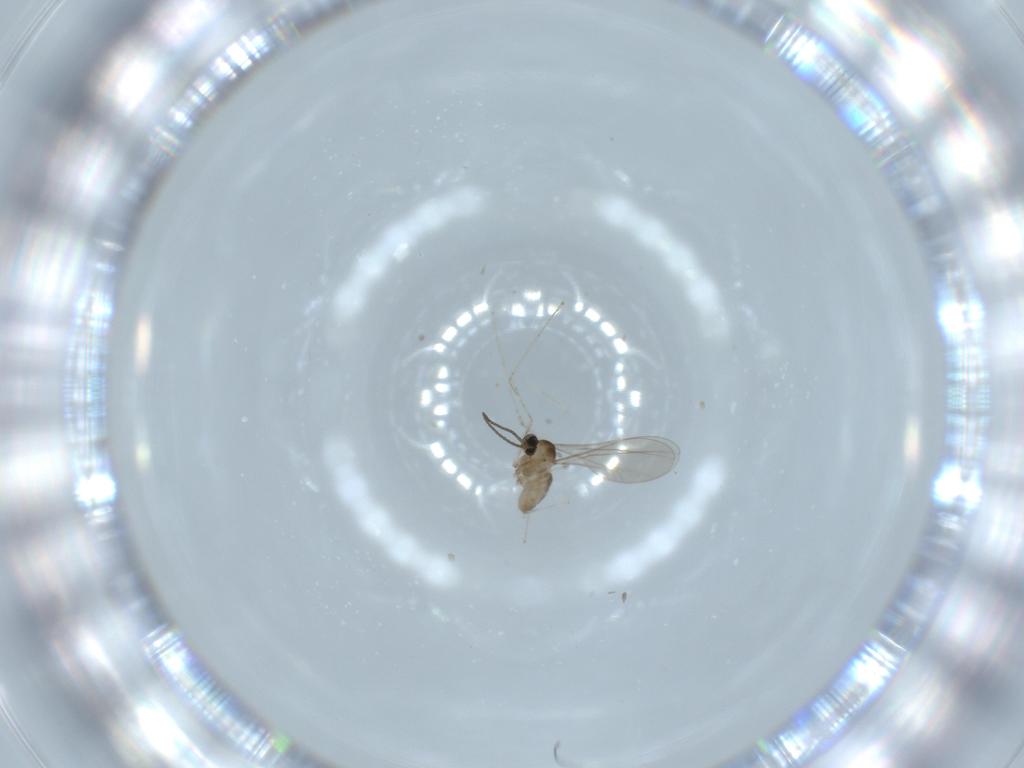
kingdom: Animalia
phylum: Arthropoda
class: Insecta
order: Diptera
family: Cecidomyiidae
